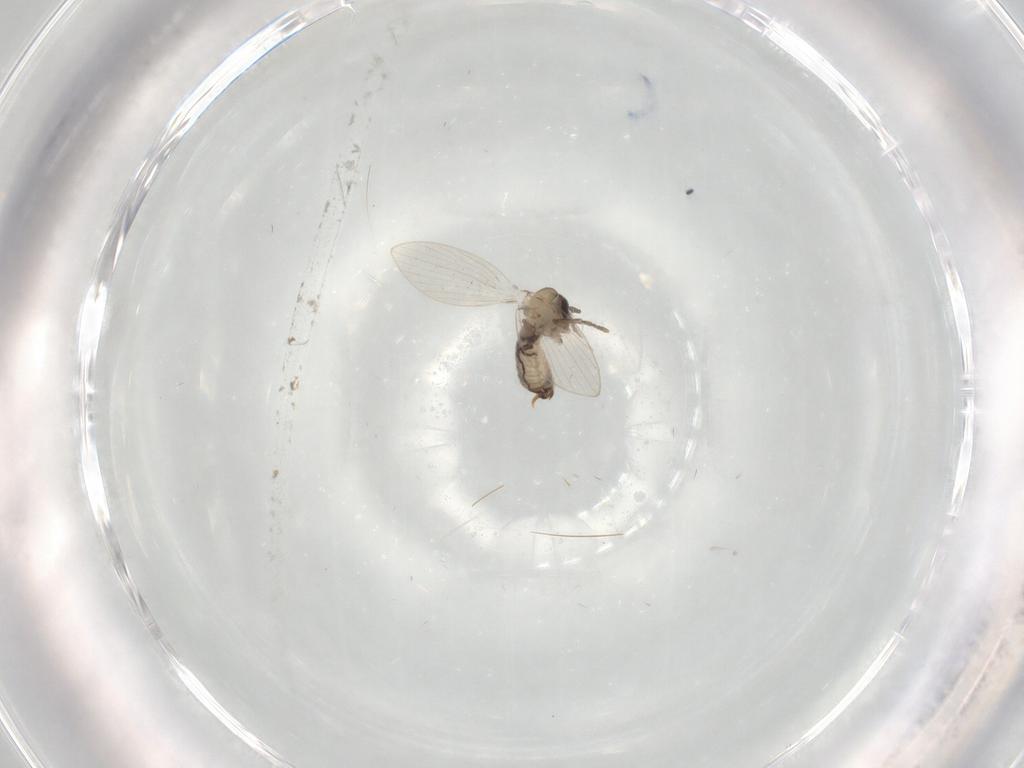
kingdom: Animalia
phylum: Arthropoda
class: Insecta
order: Diptera
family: Psychodidae
